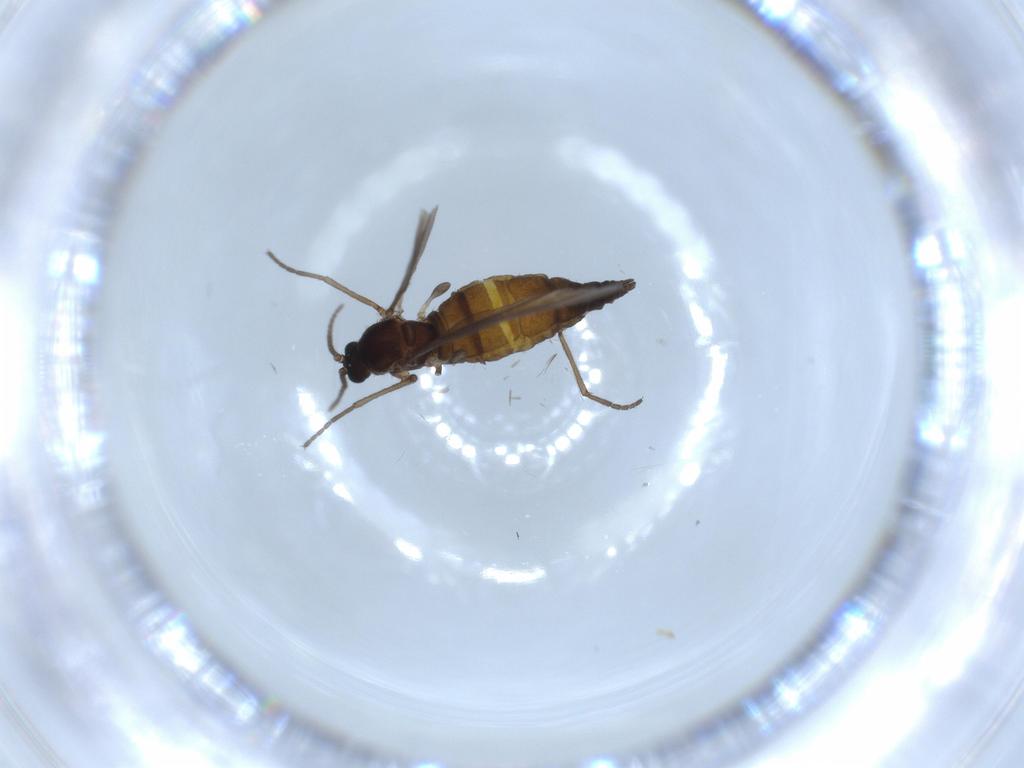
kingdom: Animalia
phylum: Arthropoda
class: Insecta
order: Diptera
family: Sciaridae
